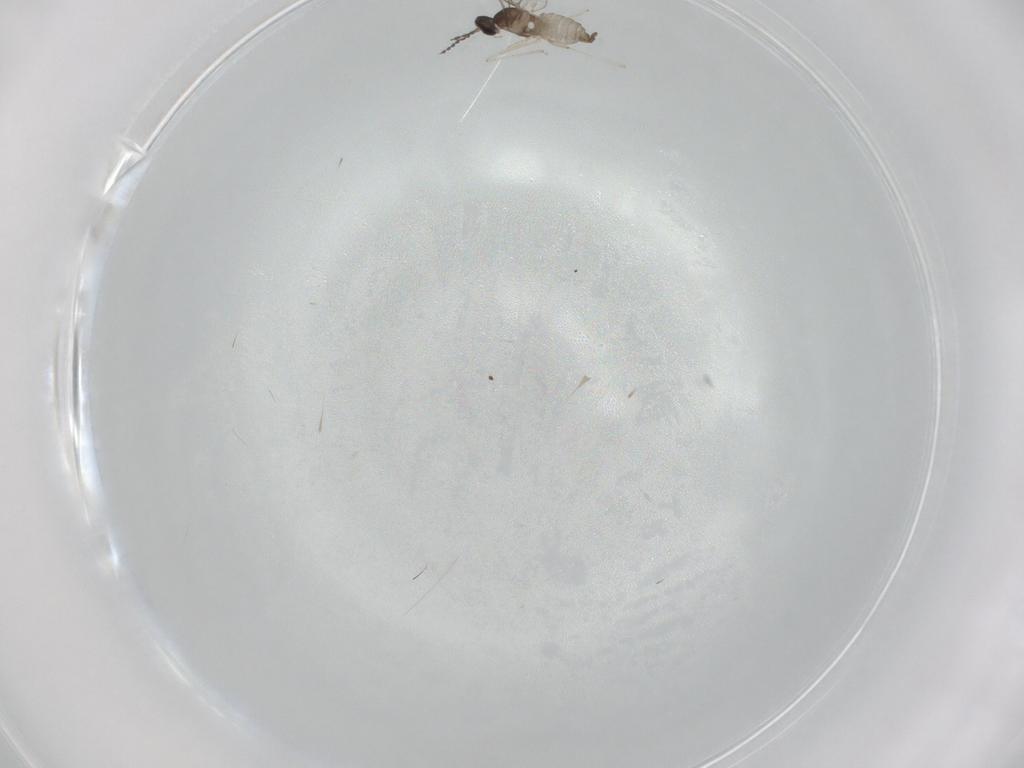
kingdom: Animalia
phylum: Arthropoda
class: Insecta
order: Diptera
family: Cecidomyiidae
